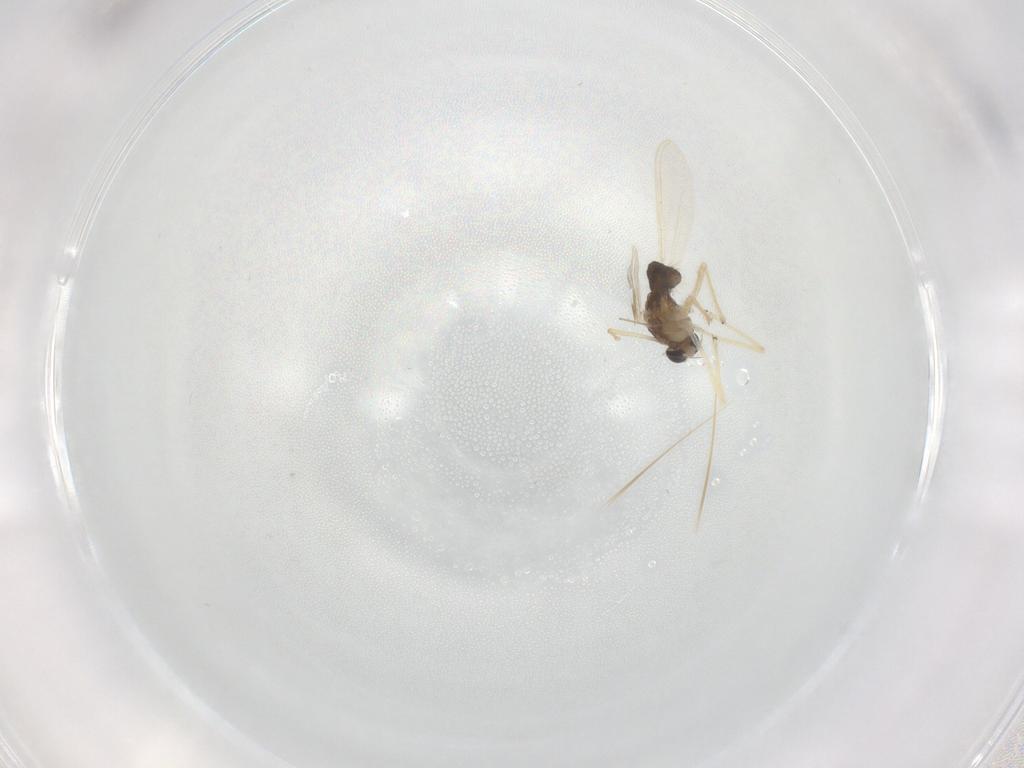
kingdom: Animalia
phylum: Arthropoda
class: Insecta
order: Diptera
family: Chironomidae
